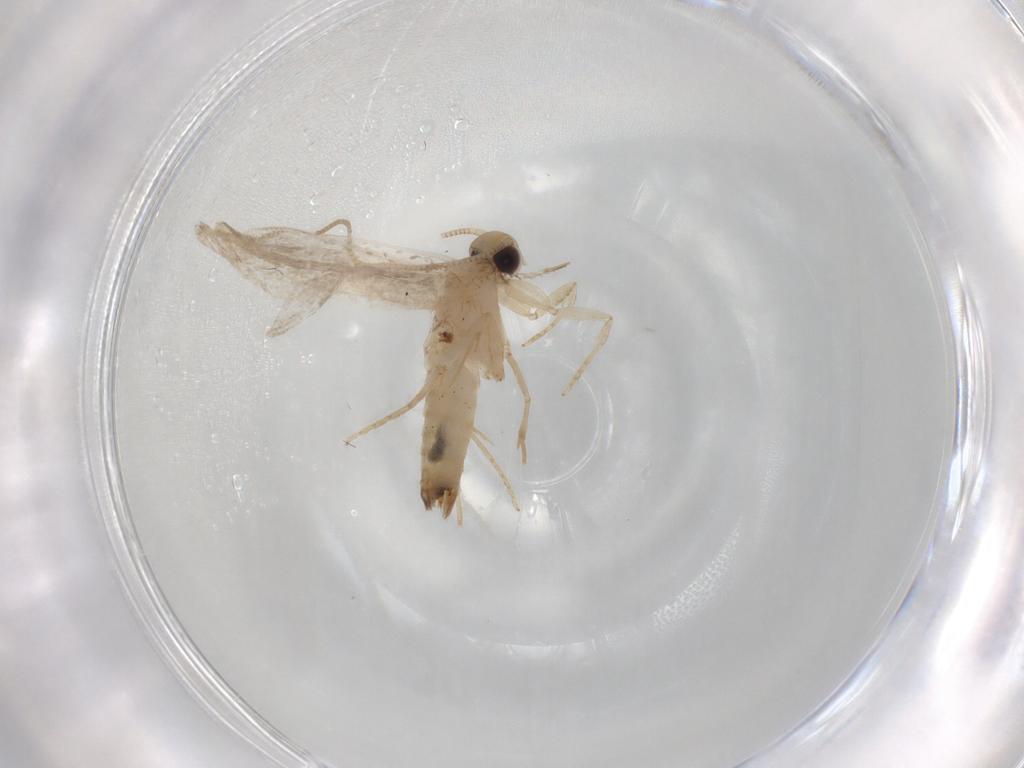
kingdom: Animalia
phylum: Arthropoda
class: Insecta
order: Lepidoptera
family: Tineidae
